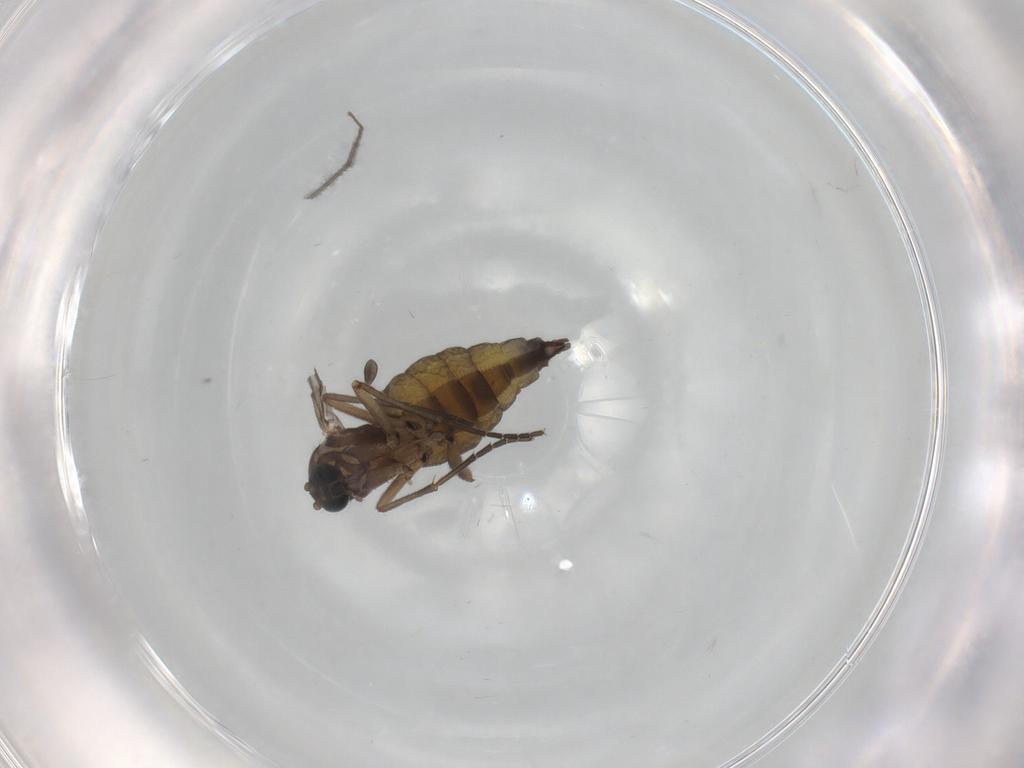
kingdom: Animalia
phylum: Arthropoda
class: Insecta
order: Diptera
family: Sciaridae
